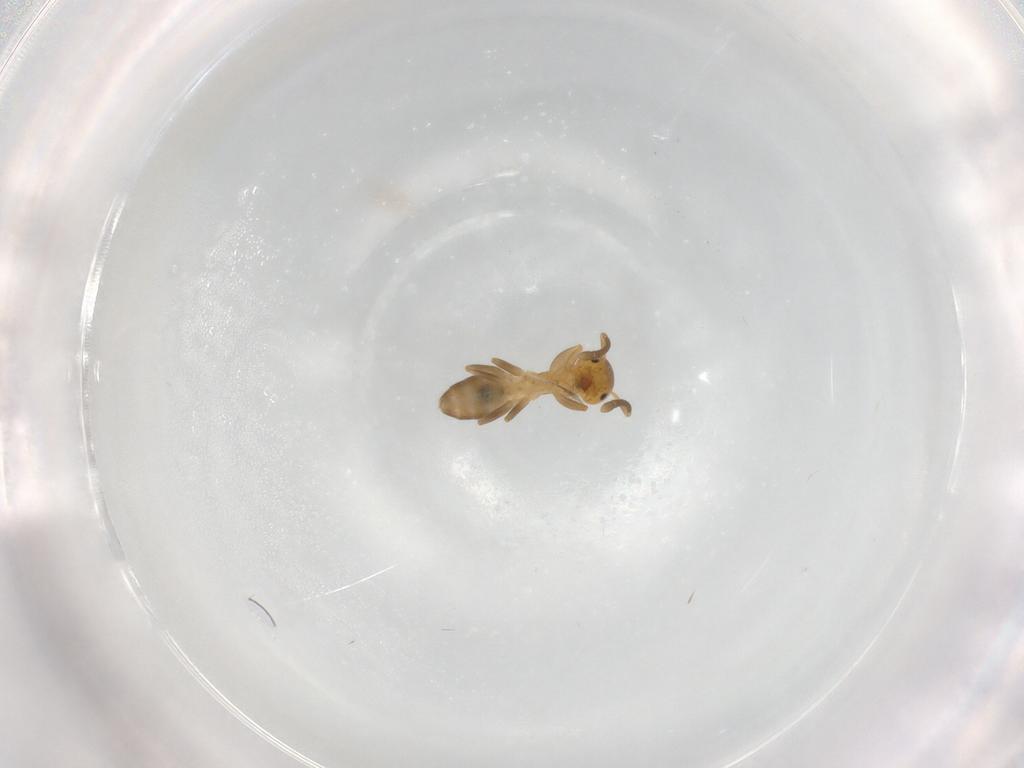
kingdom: Animalia
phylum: Arthropoda
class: Insecta
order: Hymenoptera
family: Formicidae
